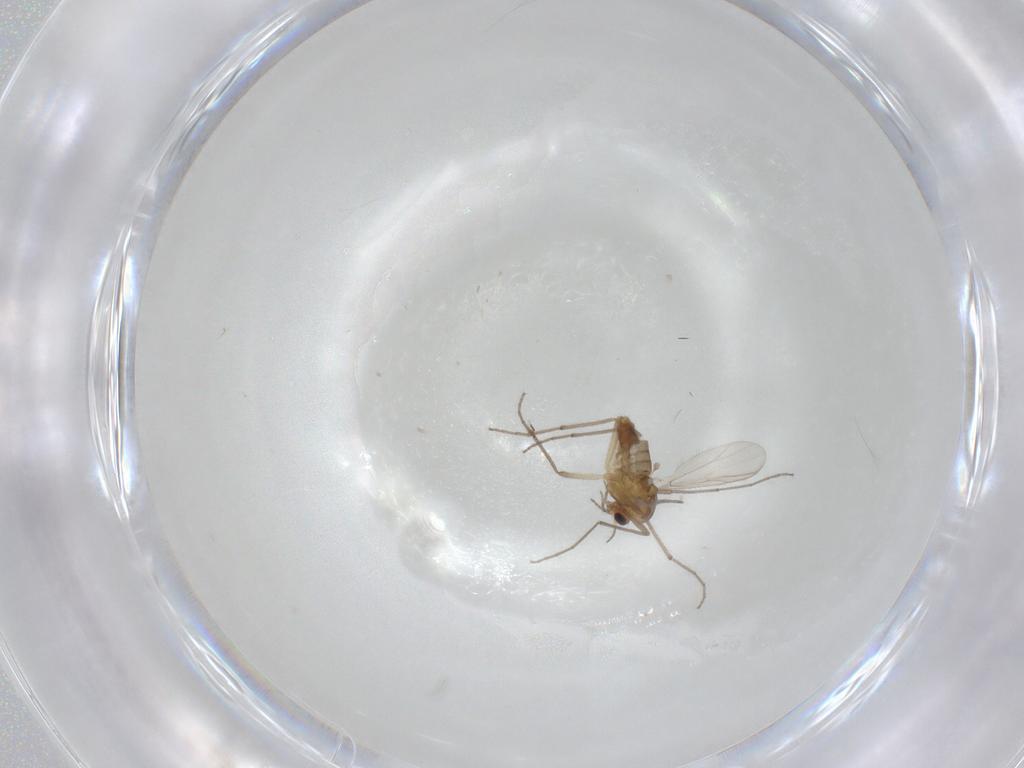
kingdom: Animalia
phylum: Arthropoda
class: Insecta
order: Diptera
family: Chironomidae
